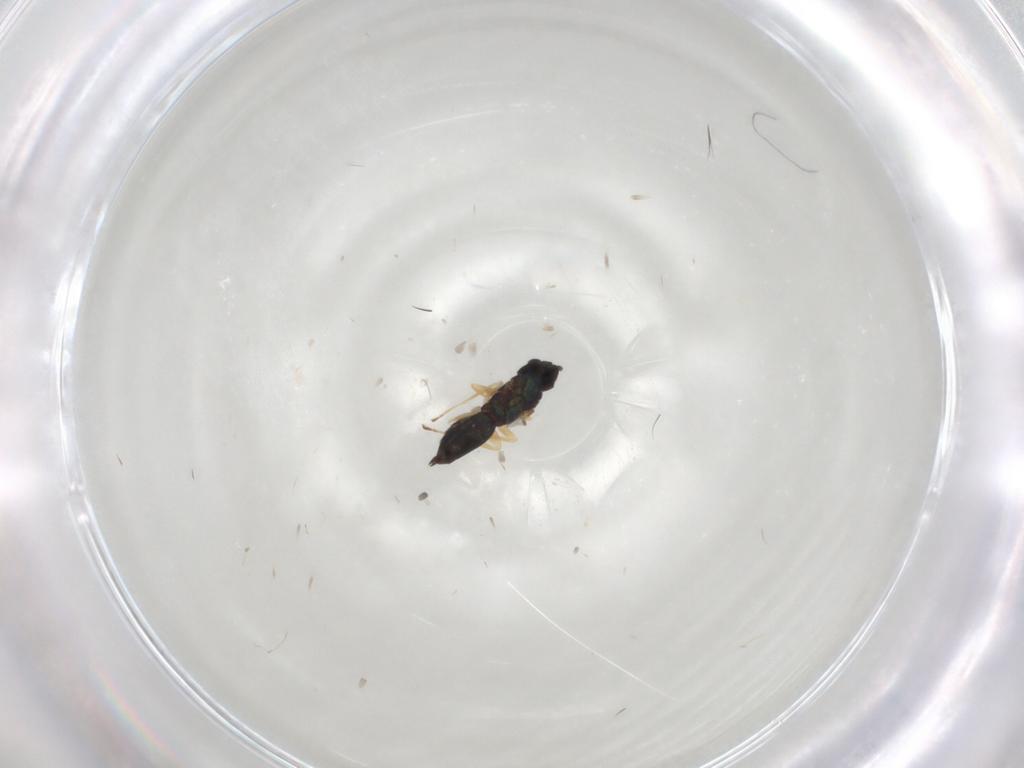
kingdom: Animalia
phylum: Arthropoda
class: Insecta
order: Hymenoptera
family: Eulophidae
